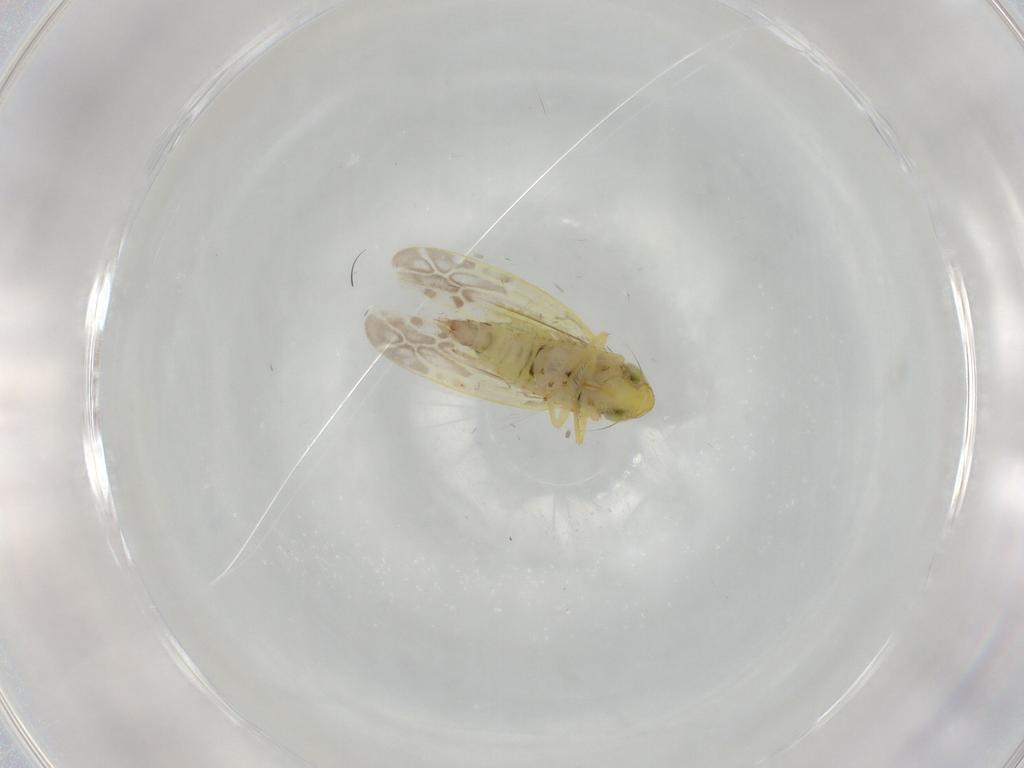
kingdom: Animalia
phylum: Arthropoda
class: Insecta
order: Hemiptera
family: Cicadellidae
